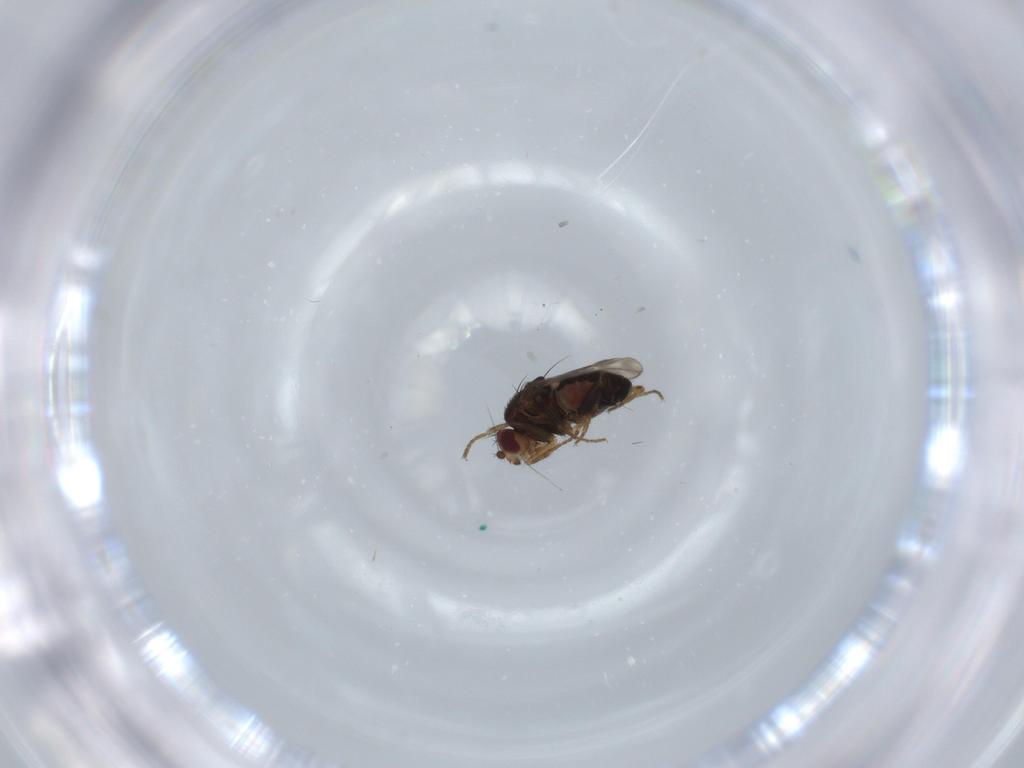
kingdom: Animalia
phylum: Arthropoda
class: Insecta
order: Diptera
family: Sphaeroceridae
